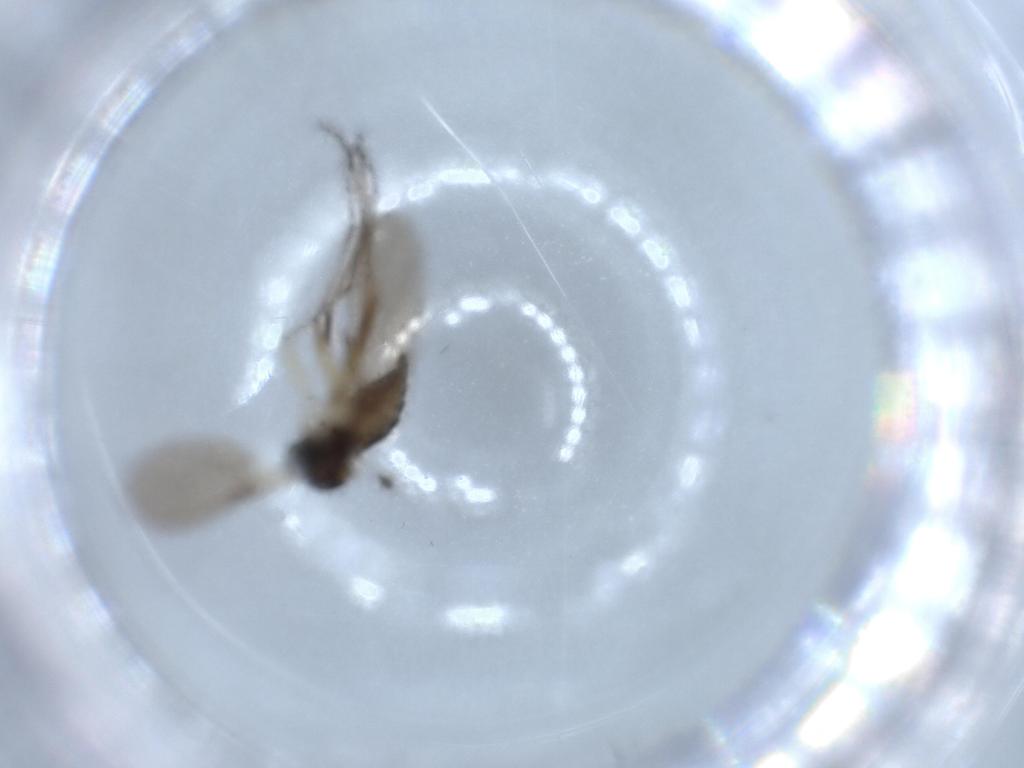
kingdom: Animalia
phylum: Arthropoda
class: Insecta
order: Diptera
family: Sciaridae
